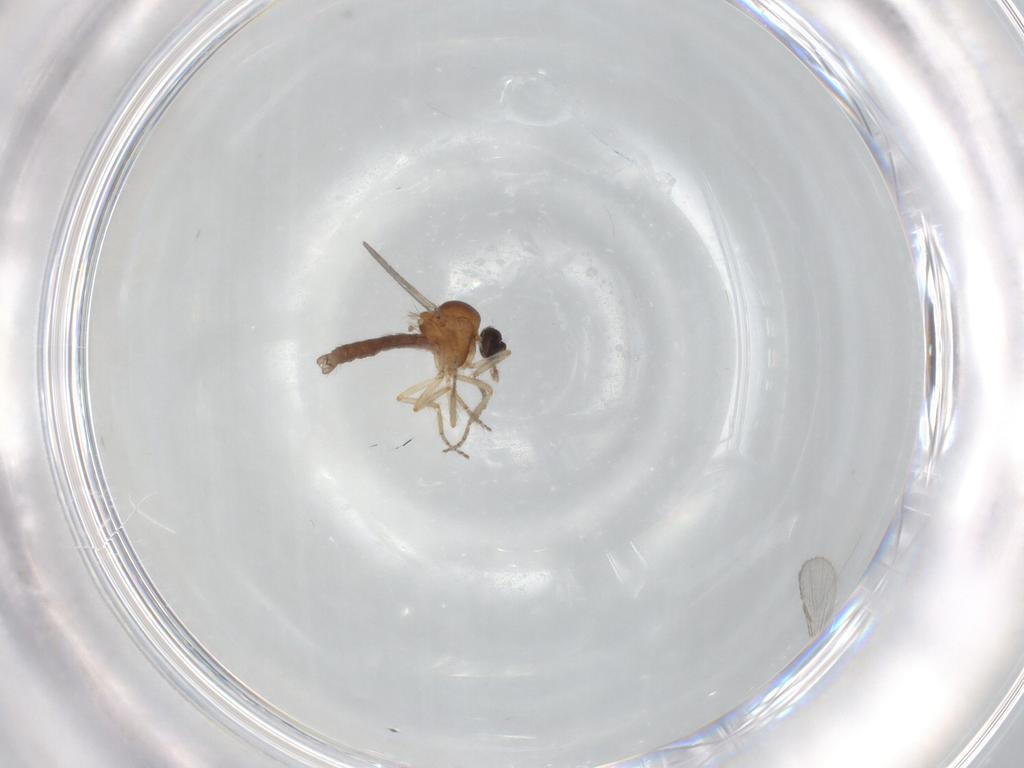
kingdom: Animalia
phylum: Arthropoda
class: Insecta
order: Diptera
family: Ceratopogonidae
